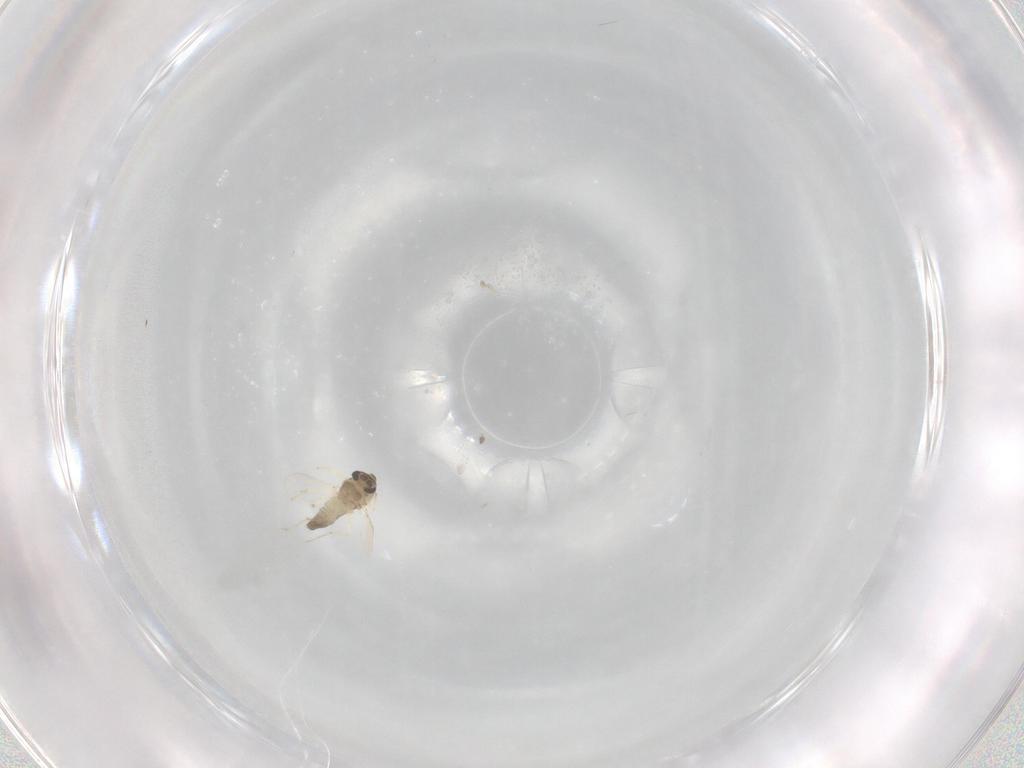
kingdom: Animalia
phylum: Arthropoda
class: Insecta
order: Diptera
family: Chironomidae
